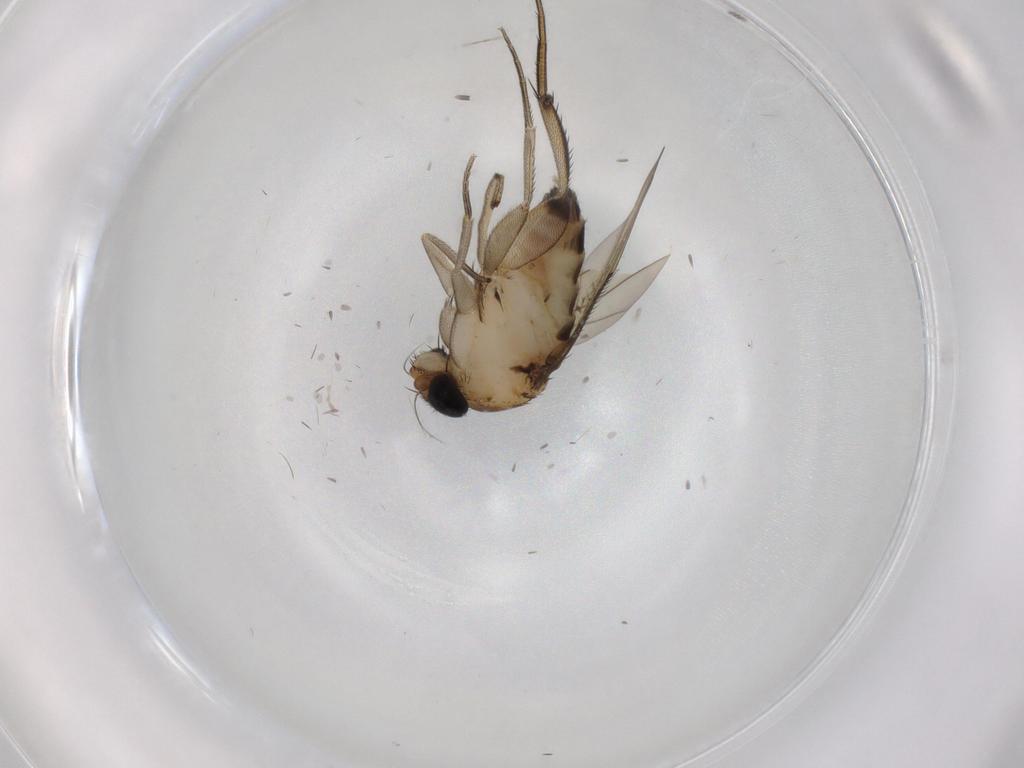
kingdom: Animalia
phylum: Arthropoda
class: Insecta
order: Diptera
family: Phoridae
